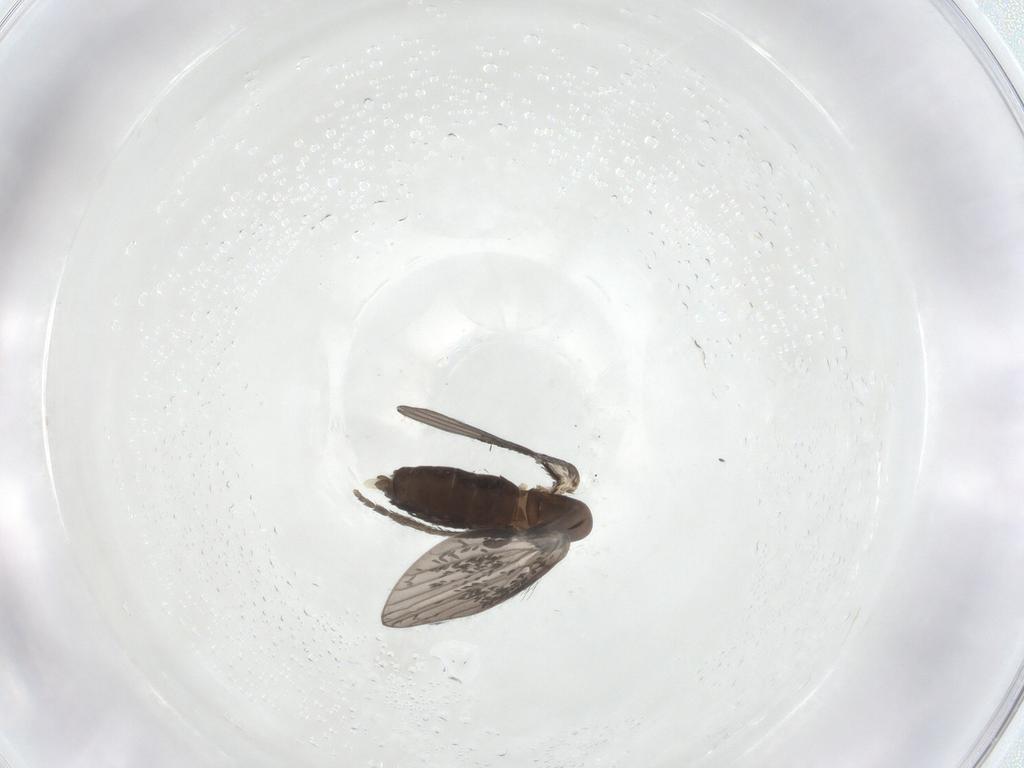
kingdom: Animalia
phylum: Arthropoda
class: Insecta
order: Diptera
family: Psychodidae
